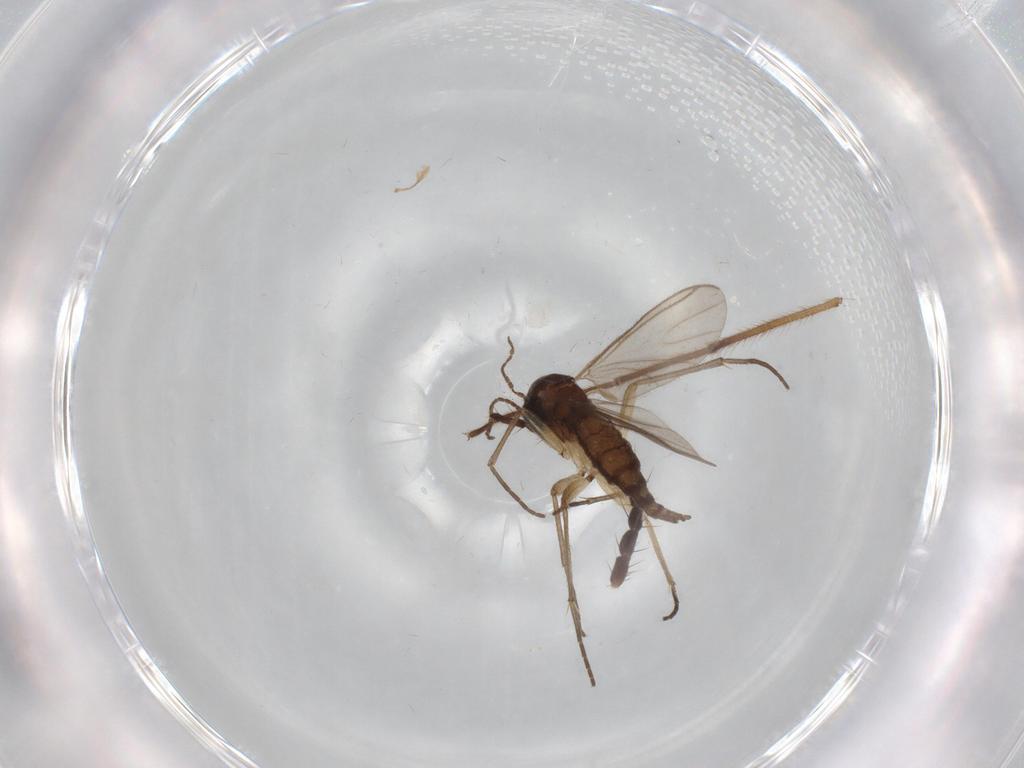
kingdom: Animalia
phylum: Arthropoda
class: Insecta
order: Diptera
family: Sciaridae
